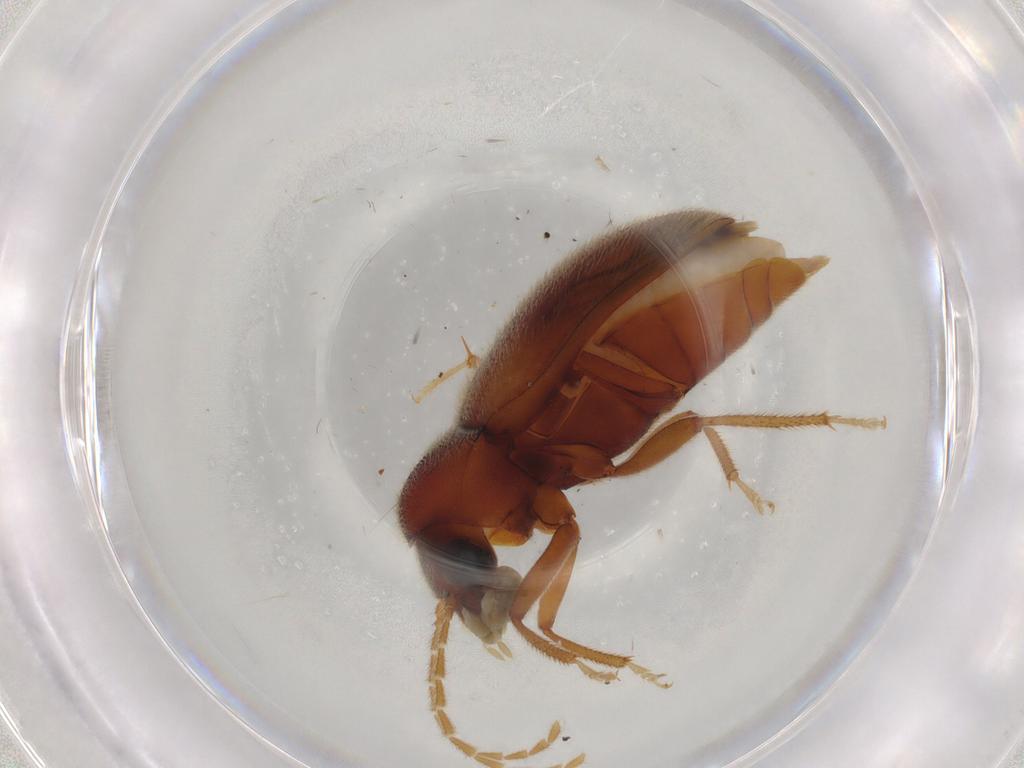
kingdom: Animalia
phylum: Arthropoda
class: Insecta
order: Coleoptera
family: Ptilodactylidae
